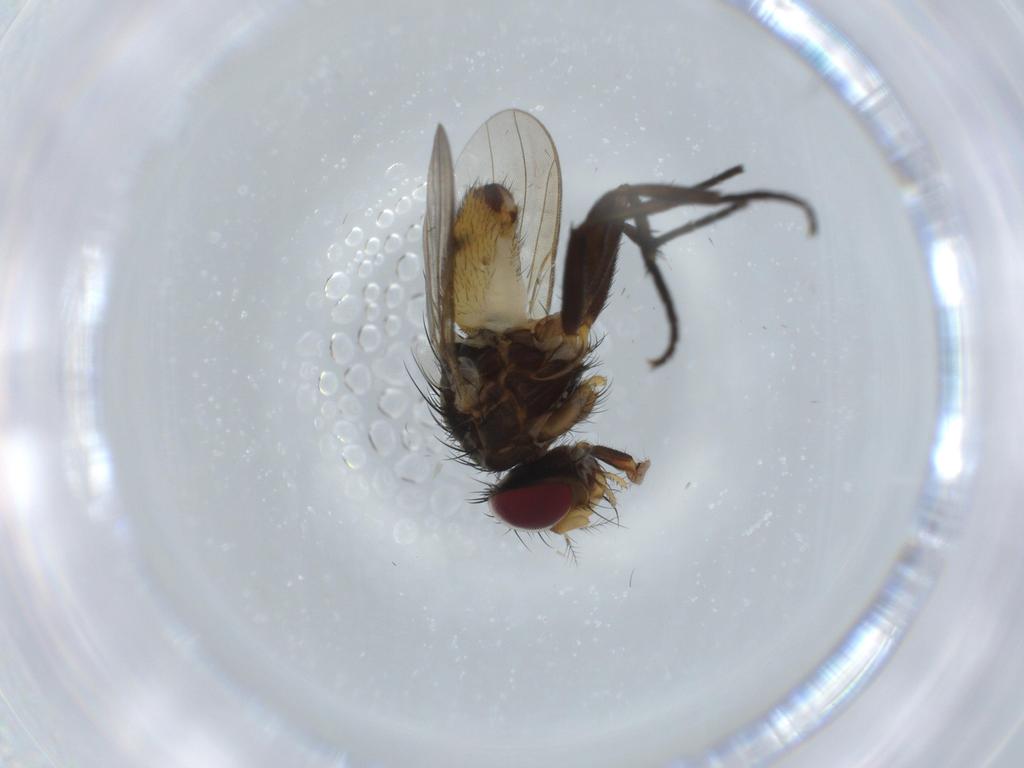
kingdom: Animalia
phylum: Arthropoda
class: Insecta
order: Diptera
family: Anthomyiidae
